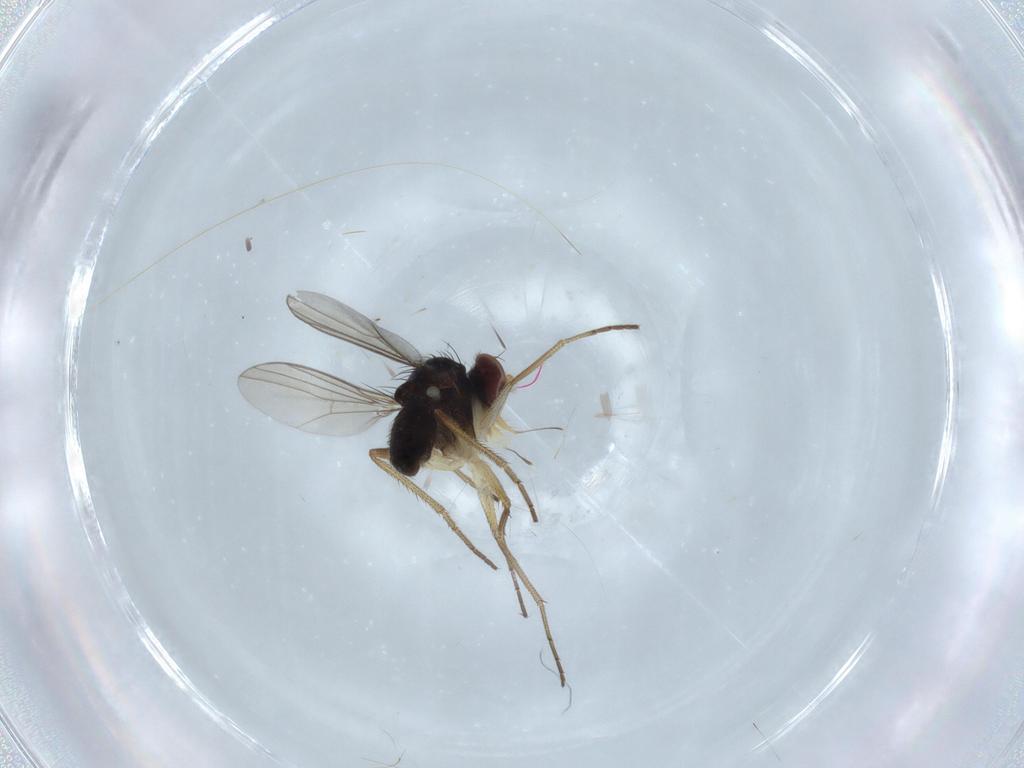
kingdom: Animalia
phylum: Arthropoda
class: Insecta
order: Diptera
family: Dolichopodidae
